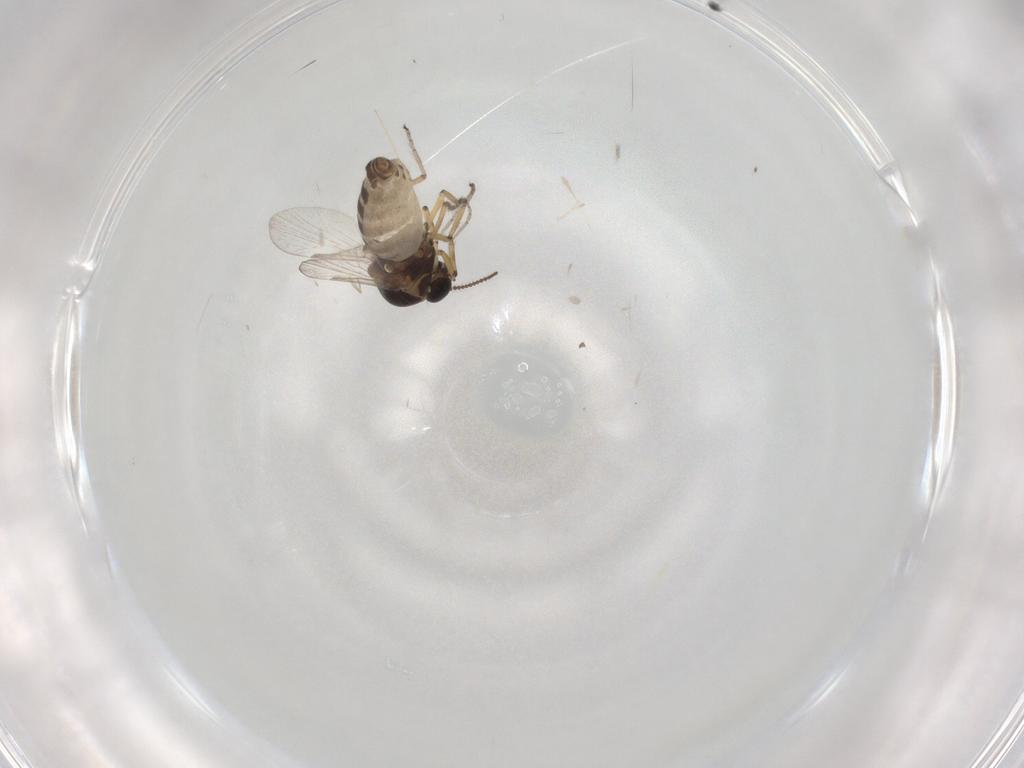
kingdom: Animalia
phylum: Arthropoda
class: Insecta
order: Diptera
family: Cecidomyiidae
